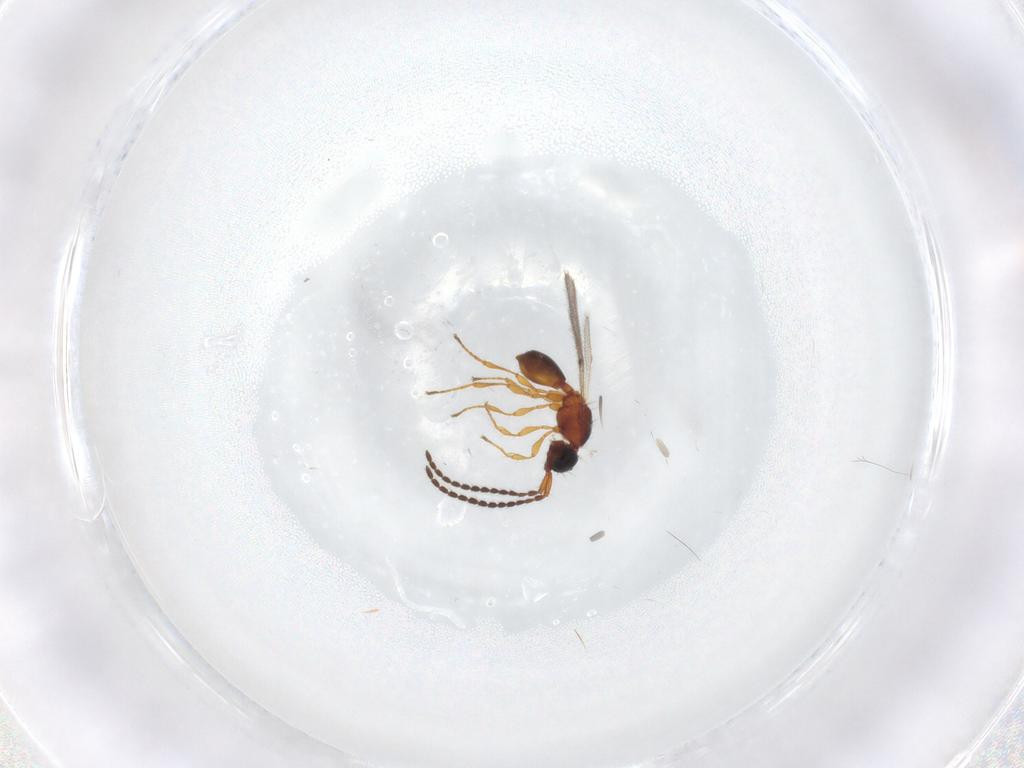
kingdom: Animalia
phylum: Arthropoda
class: Insecta
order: Hymenoptera
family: Diapriidae
